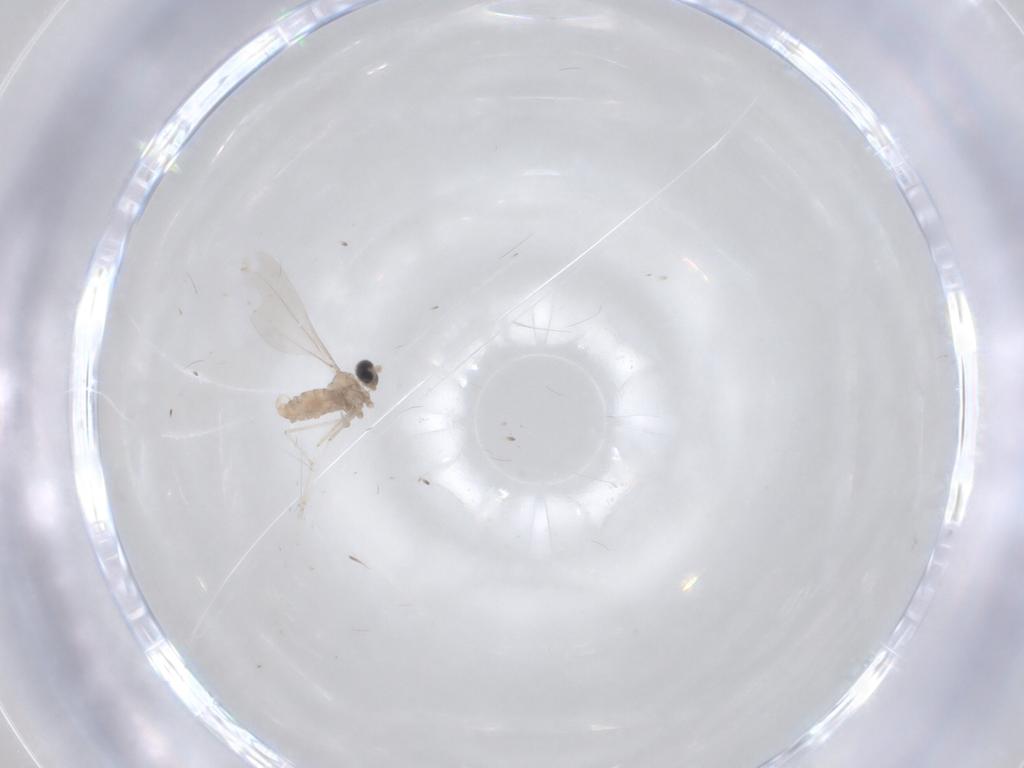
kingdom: Animalia
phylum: Arthropoda
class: Insecta
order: Diptera
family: Cecidomyiidae
